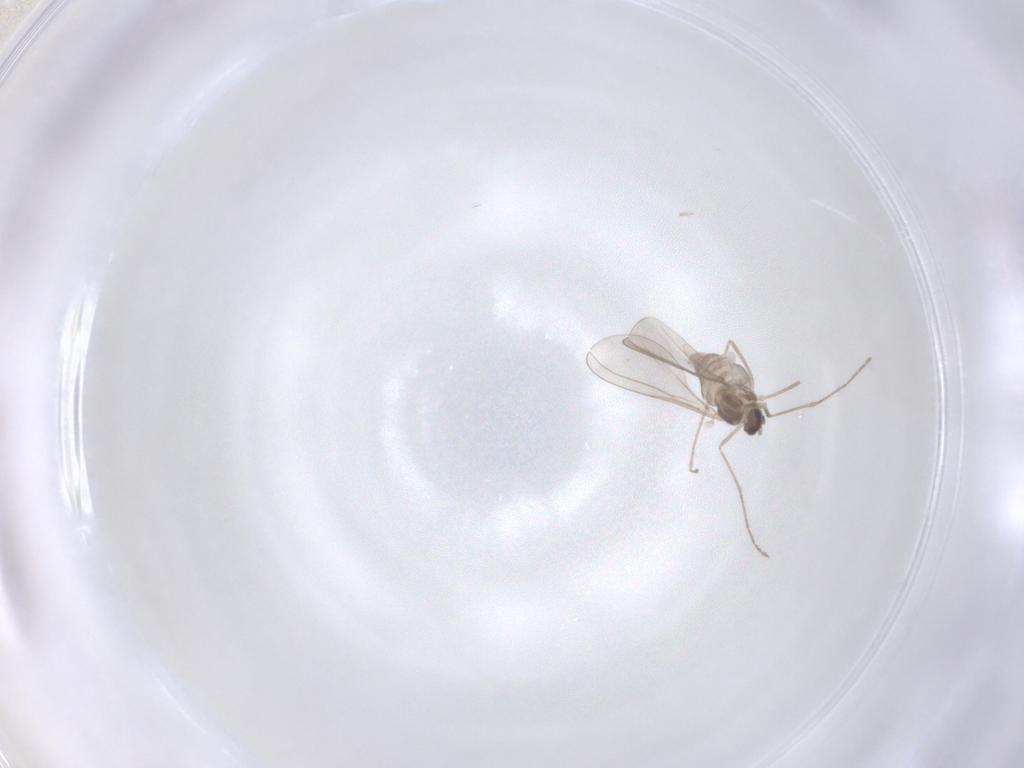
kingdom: Animalia
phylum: Arthropoda
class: Insecta
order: Diptera
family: Cecidomyiidae
